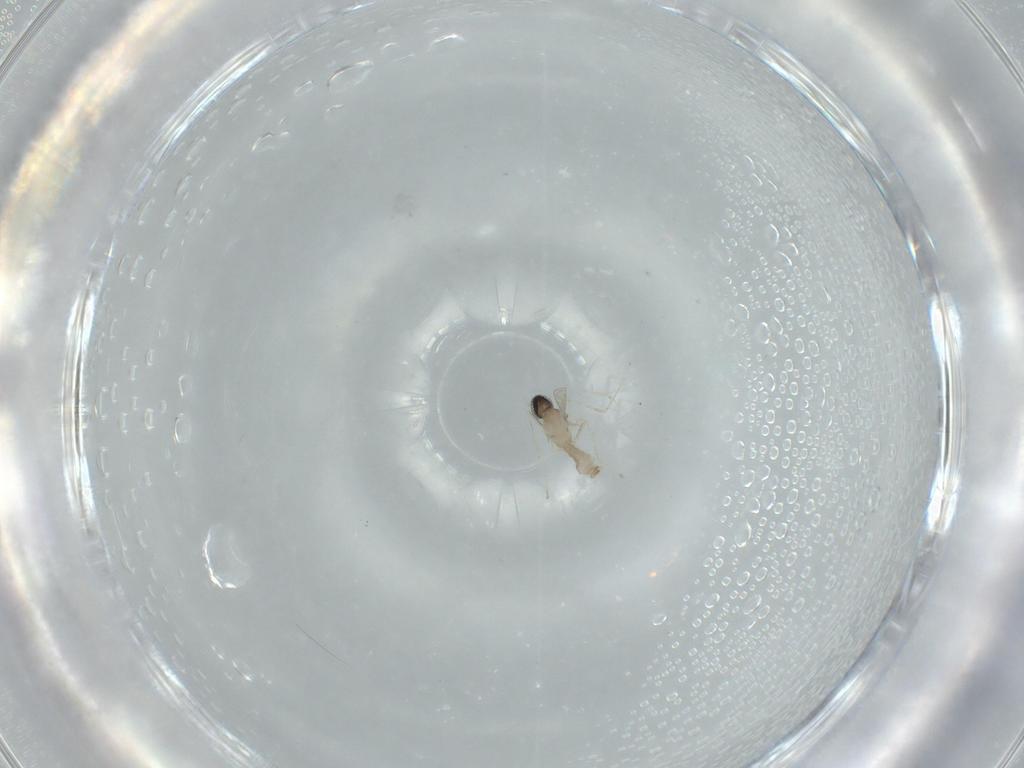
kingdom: Animalia
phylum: Arthropoda
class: Insecta
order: Diptera
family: Cecidomyiidae
